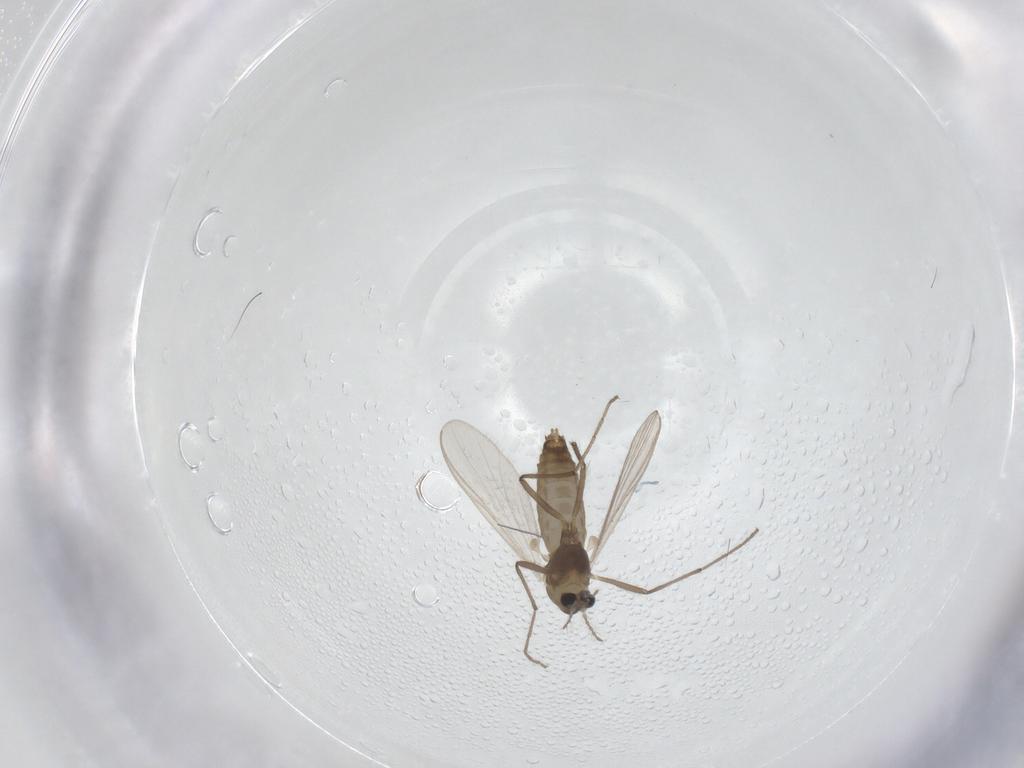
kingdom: Animalia
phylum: Arthropoda
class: Insecta
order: Diptera
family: Chironomidae
